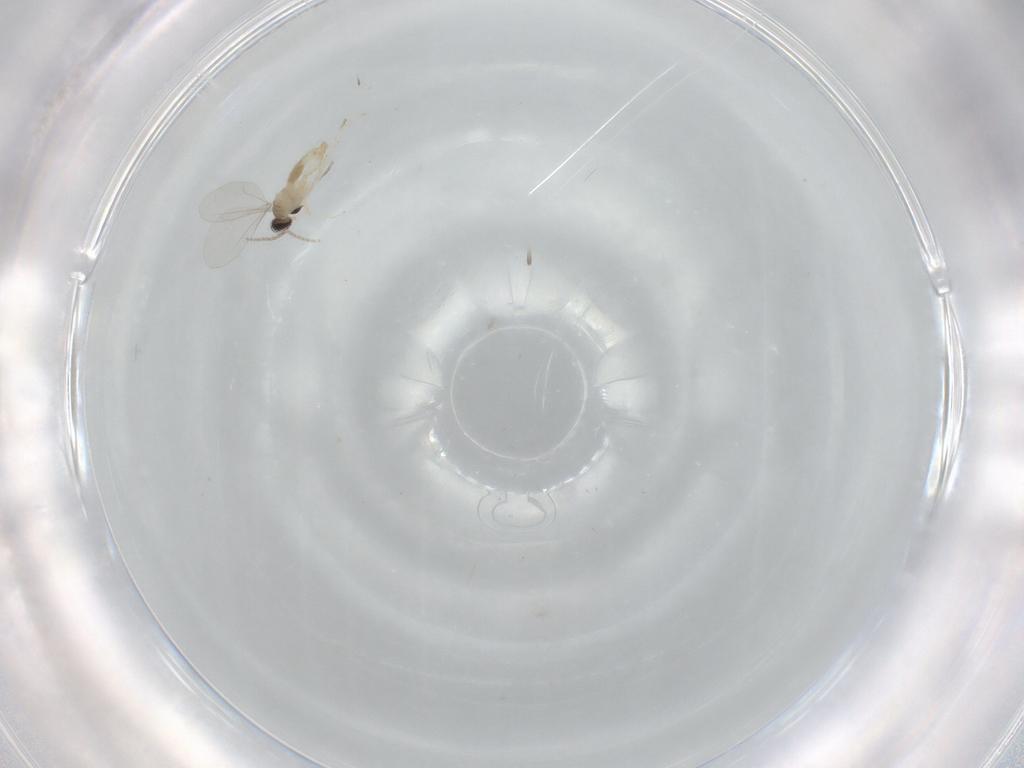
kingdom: Animalia
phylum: Arthropoda
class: Insecta
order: Diptera
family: Cecidomyiidae
